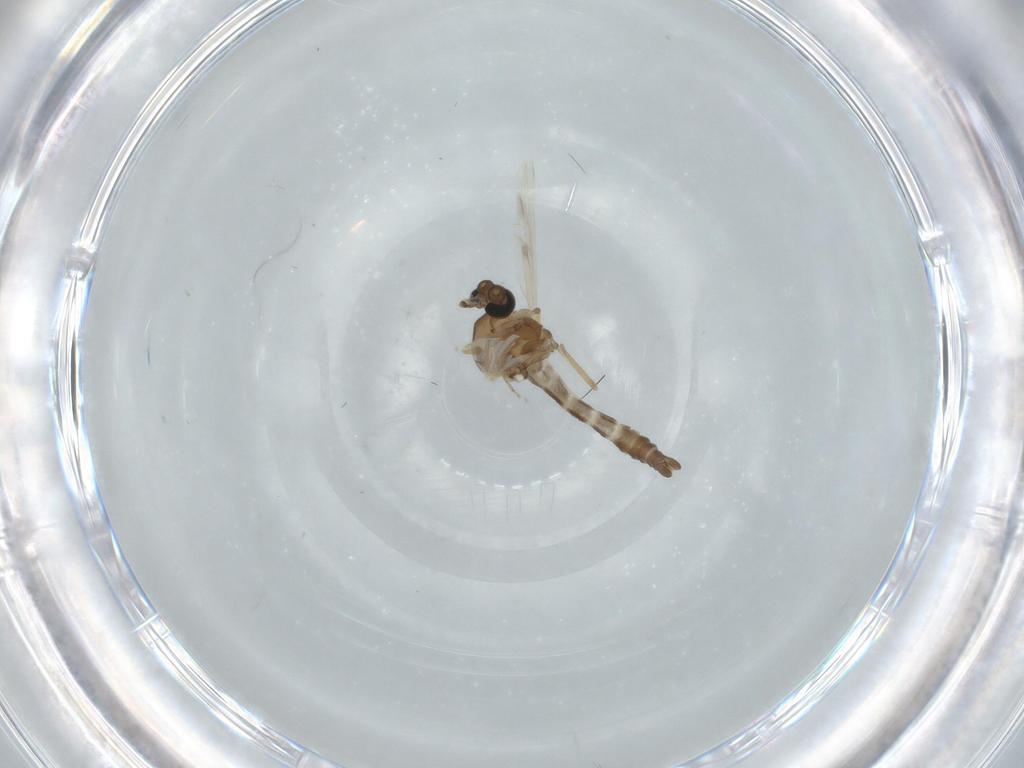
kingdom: Animalia
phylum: Arthropoda
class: Insecta
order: Diptera
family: Ceratopogonidae
